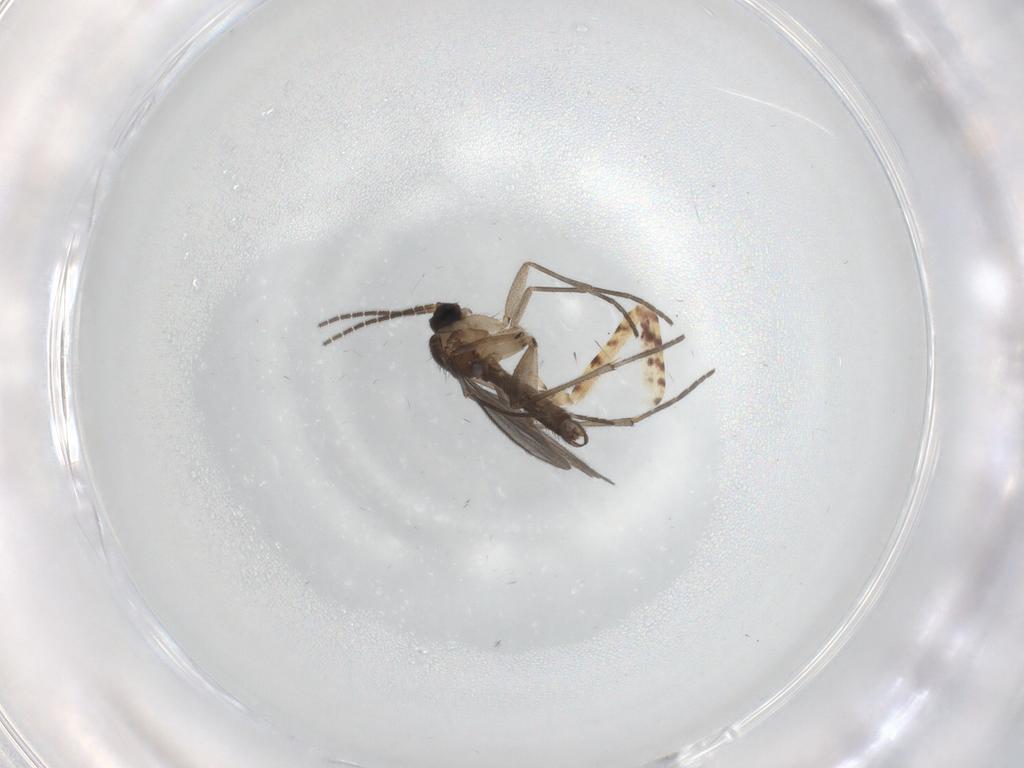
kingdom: Animalia
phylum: Arthropoda
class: Insecta
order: Diptera
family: Sciaridae
